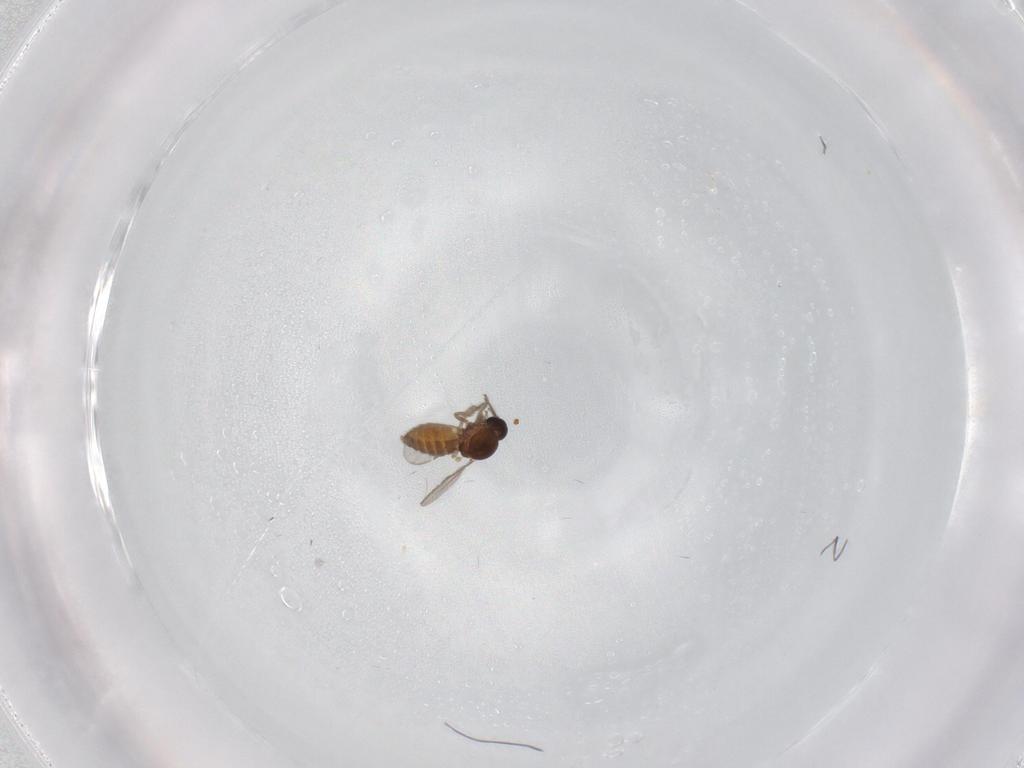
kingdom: Animalia
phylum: Arthropoda
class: Insecta
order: Diptera
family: Ceratopogonidae
